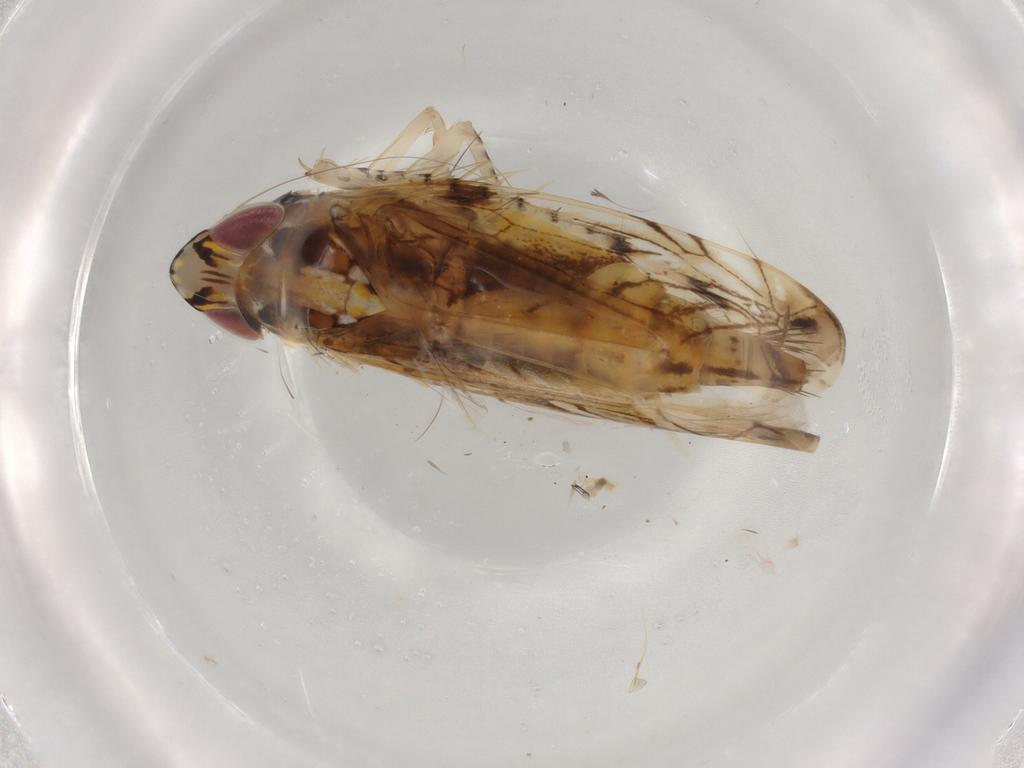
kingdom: Animalia
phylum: Arthropoda
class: Insecta
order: Hemiptera
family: Cicadellidae
